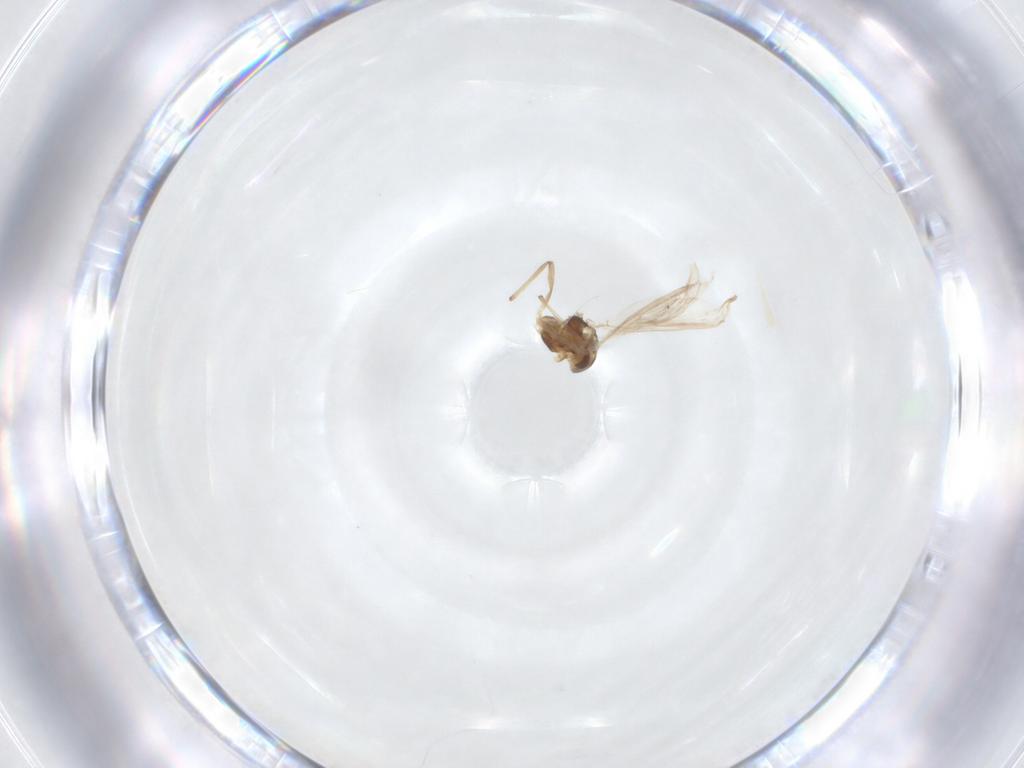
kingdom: Animalia
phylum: Arthropoda
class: Insecta
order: Diptera
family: Chironomidae
